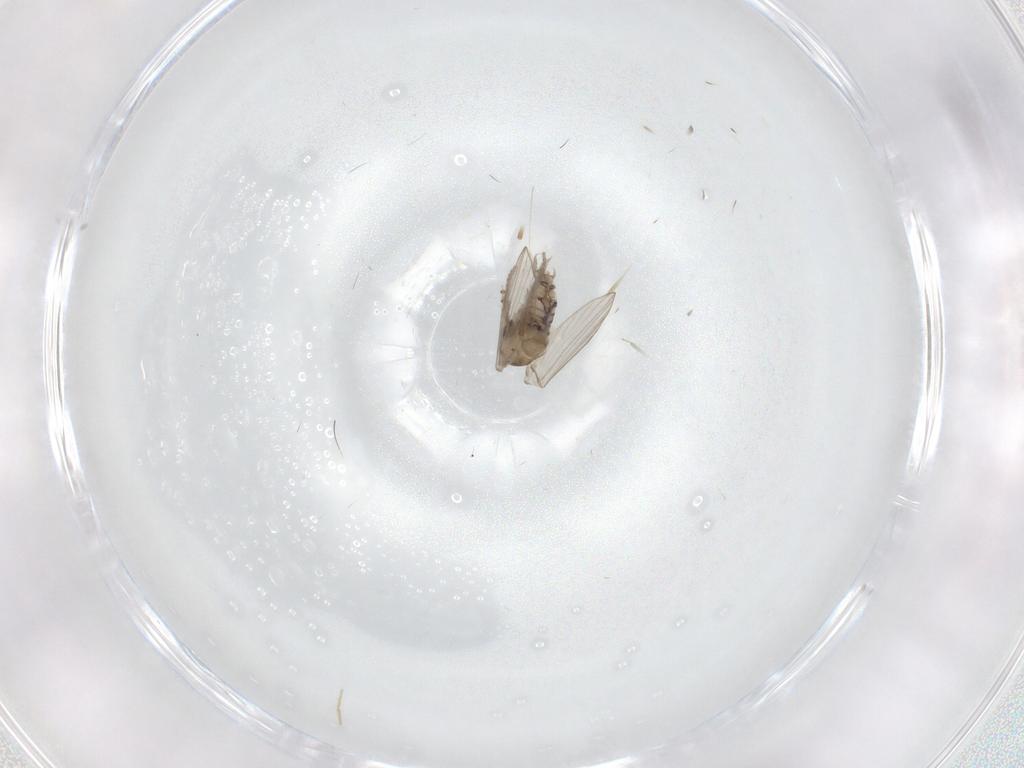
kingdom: Animalia
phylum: Arthropoda
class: Insecta
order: Diptera
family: Psychodidae
